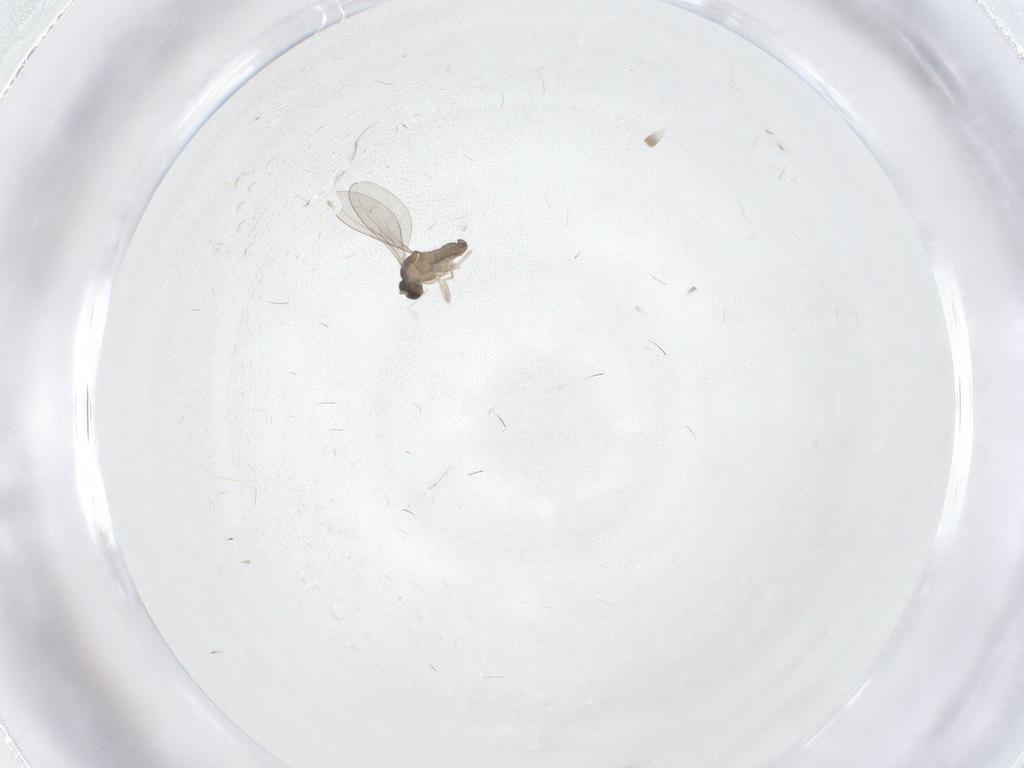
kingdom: Animalia
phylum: Arthropoda
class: Insecta
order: Diptera
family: Cecidomyiidae
